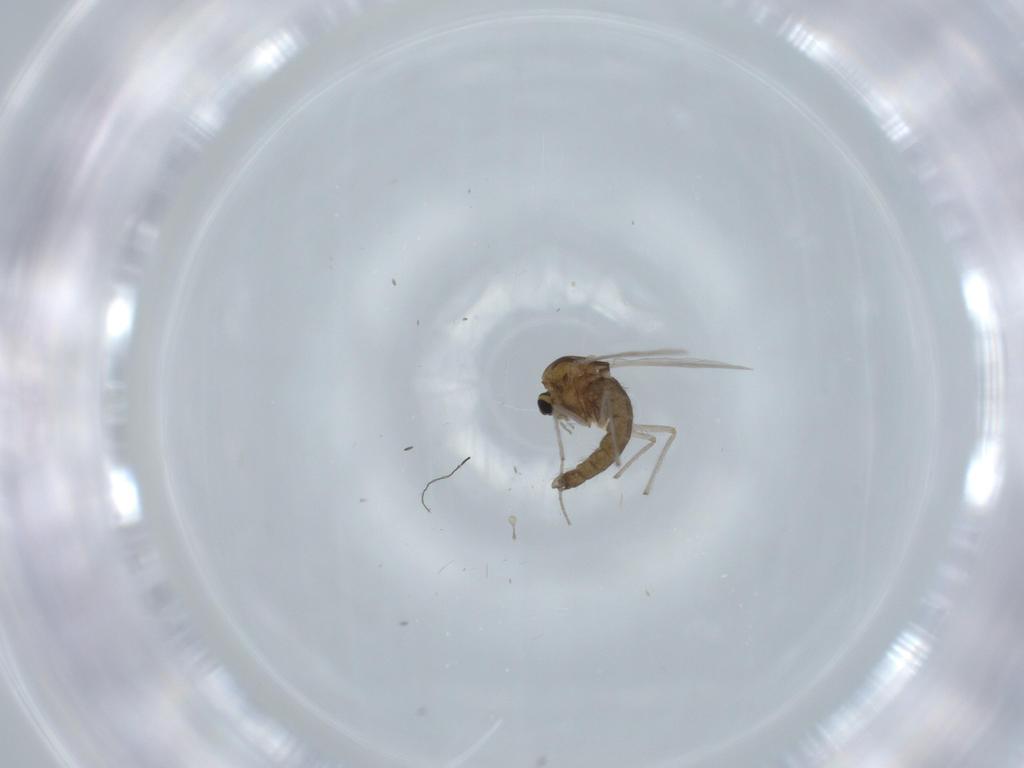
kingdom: Animalia
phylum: Arthropoda
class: Insecta
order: Diptera
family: Chironomidae
